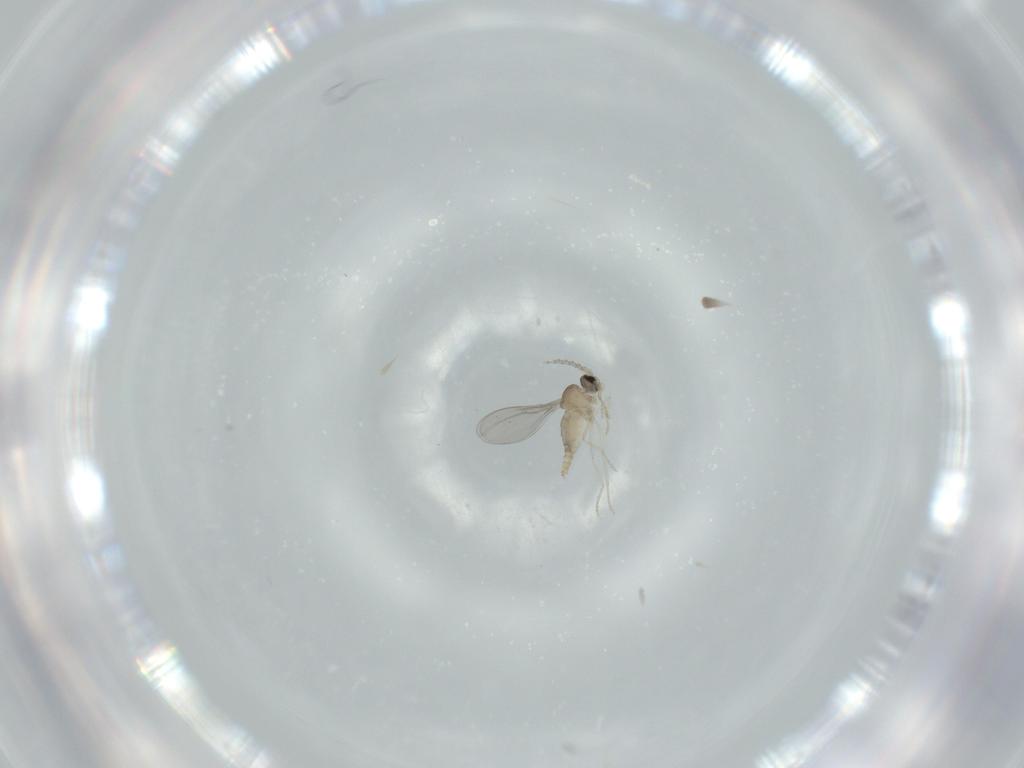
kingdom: Animalia
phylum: Arthropoda
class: Insecta
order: Diptera
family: Cecidomyiidae
